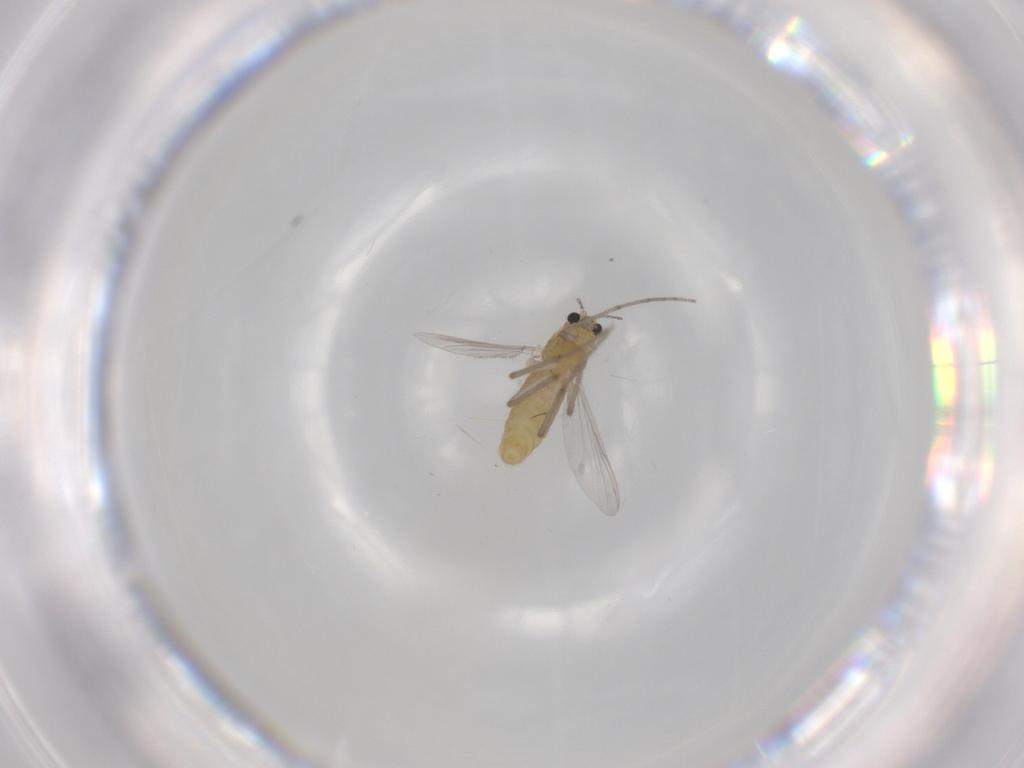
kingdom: Animalia
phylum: Arthropoda
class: Insecta
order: Diptera
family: Chironomidae
